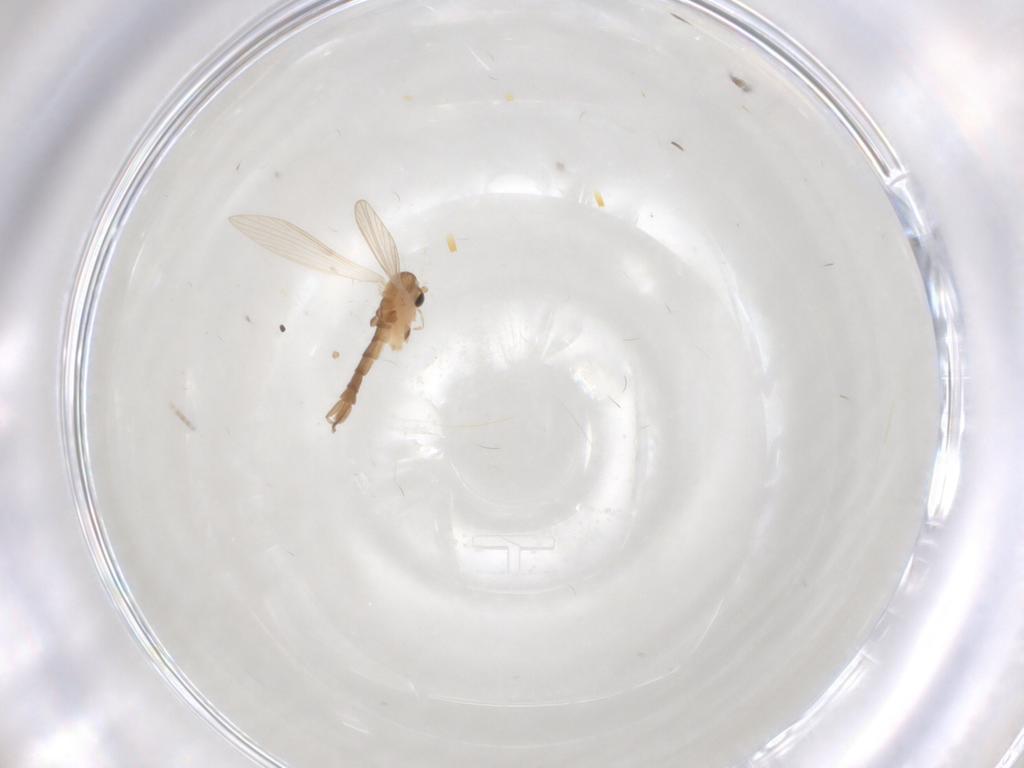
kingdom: Animalia
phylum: Arthropoda
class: Insecta
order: Diptera
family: Psychodidae
